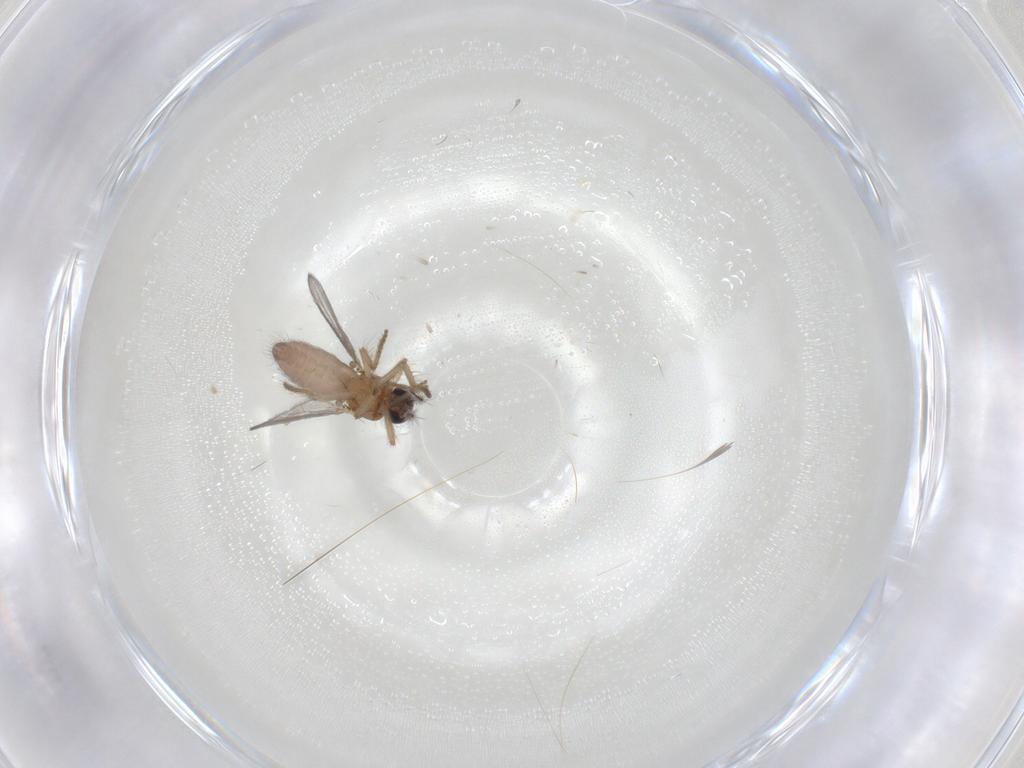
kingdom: Animalia
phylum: Arthropoda
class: Insecta
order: Diptera
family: Ceratopogonidae
